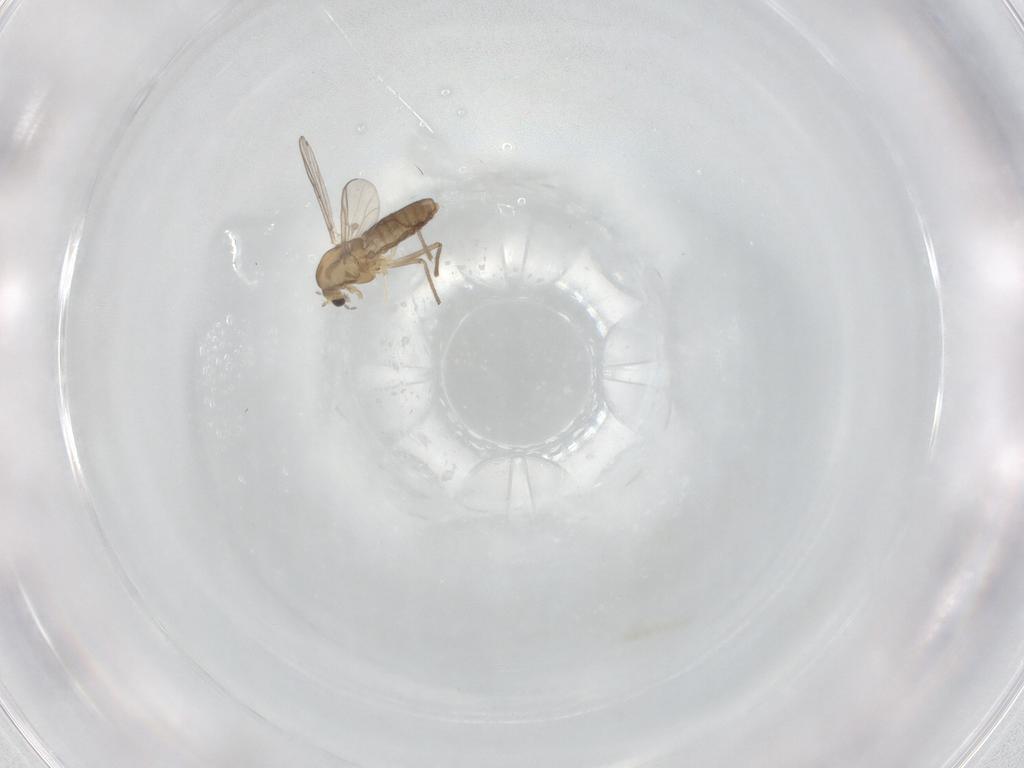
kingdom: Animalia
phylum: Arthropoda
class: Insecta
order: Diptera
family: Chironomidae
